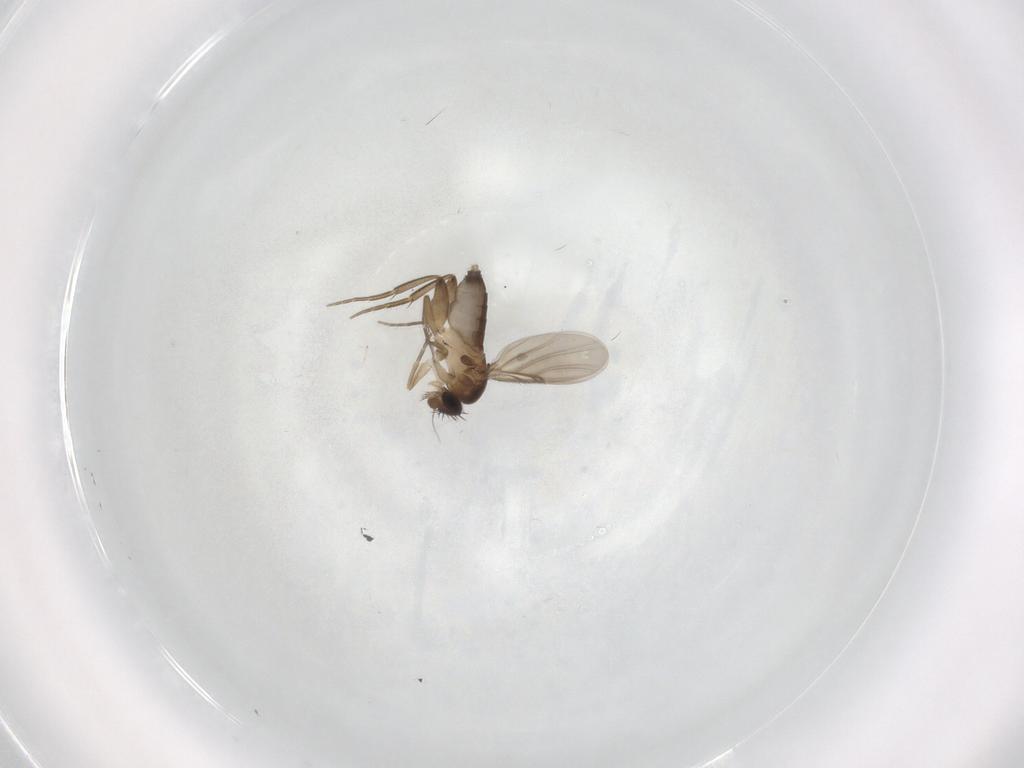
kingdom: Animalia
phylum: Arthropoda
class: Insecta
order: Diptera
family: Phoridae
